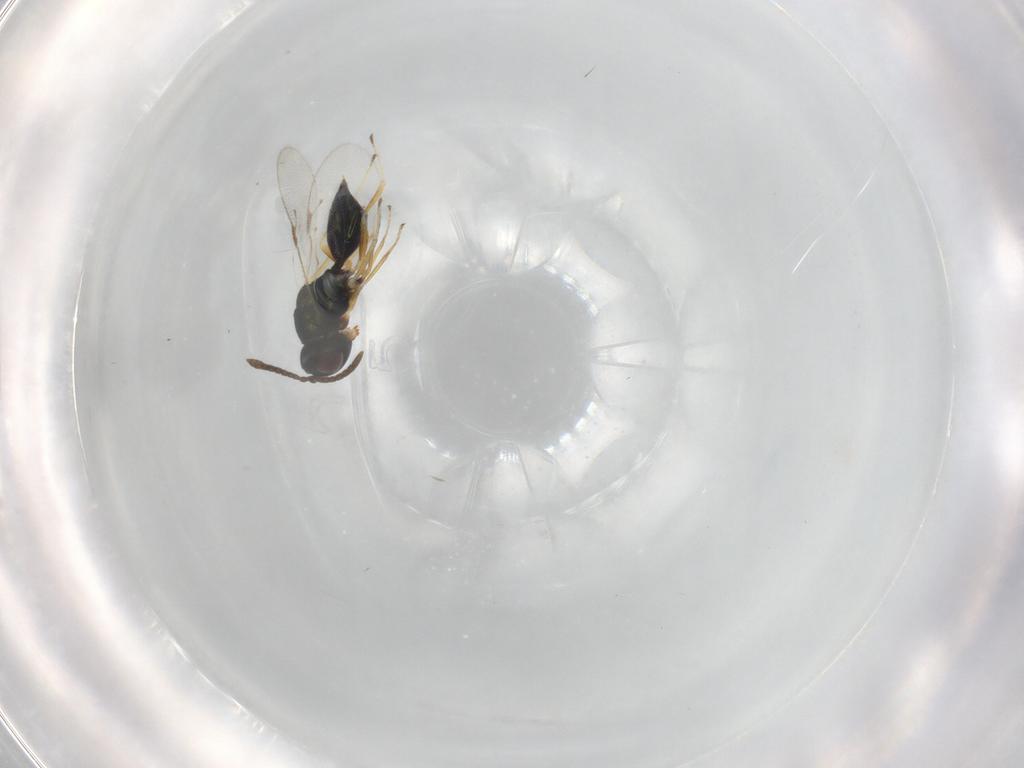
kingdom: Animalia
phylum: Arthropoda
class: Insecta
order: Hymenoptera
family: Pteromalidae
